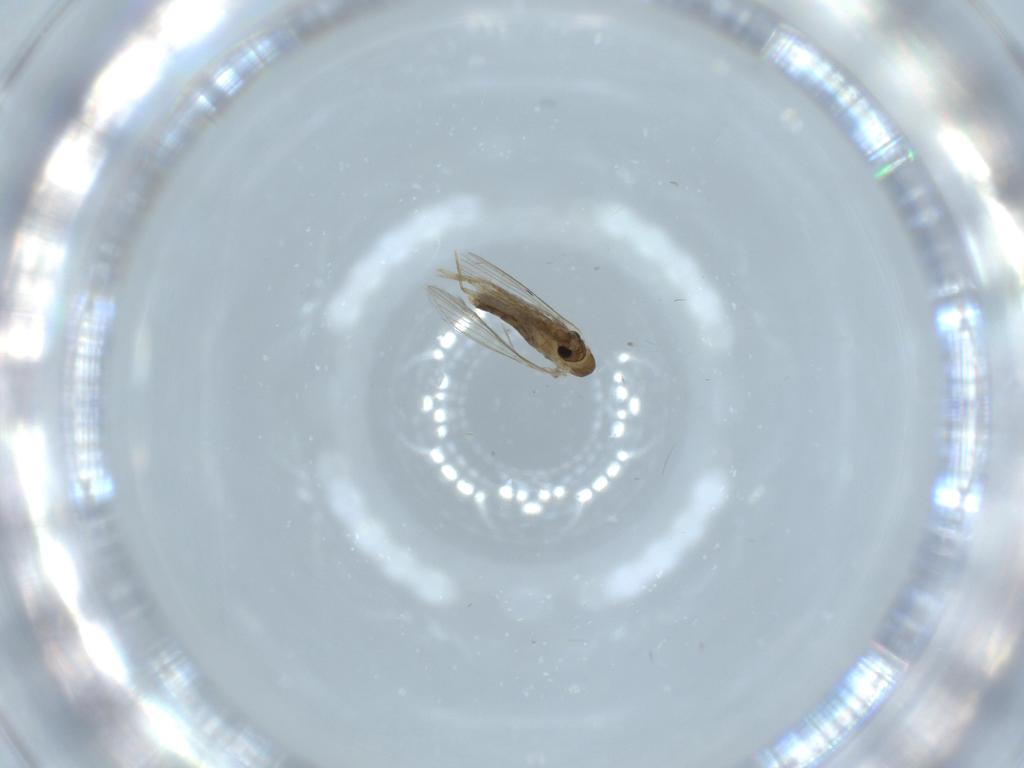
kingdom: Animalia
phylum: Arthropoda
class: Insecta
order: Diptera
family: Psychodidae
